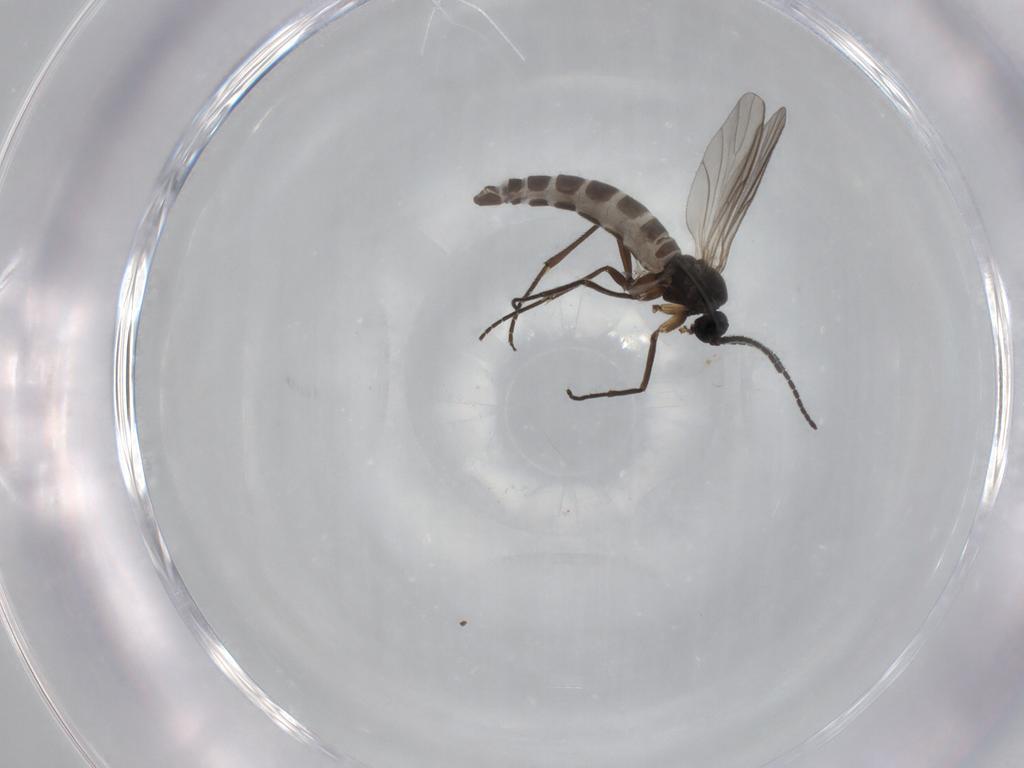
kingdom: Animalia
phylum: Arthropoda
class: Insecta
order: Diptera
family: Sciaridae
